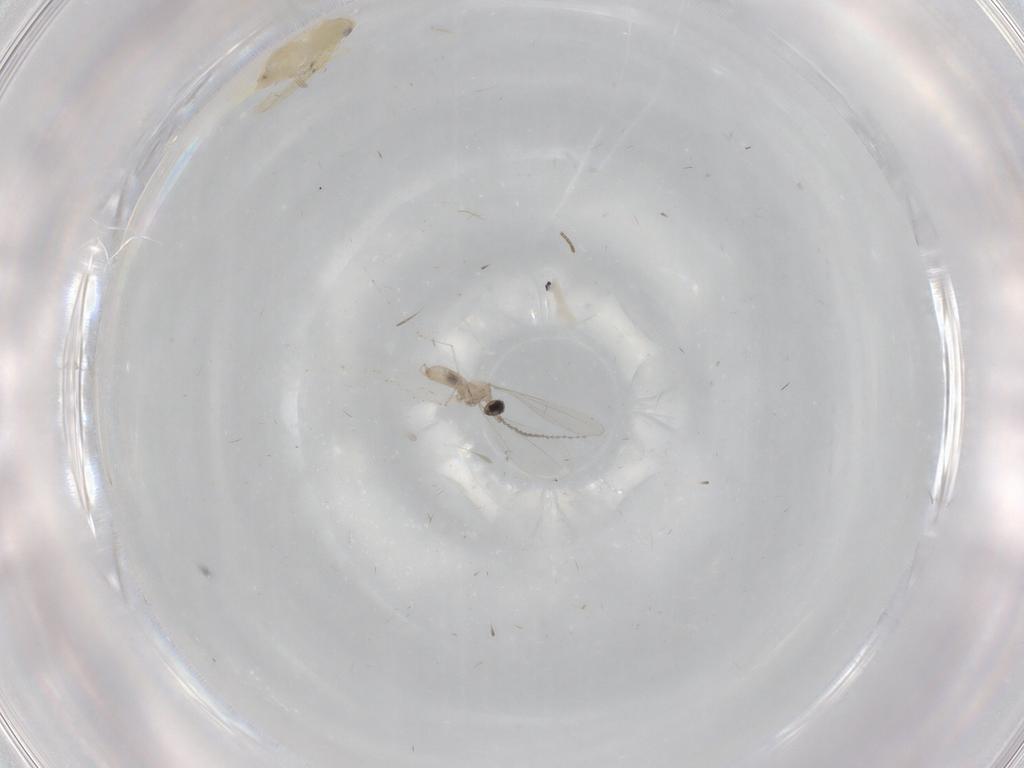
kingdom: Animalia
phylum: Arthropoda
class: Insecta
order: Hemiptera
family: Aleyrodidae
